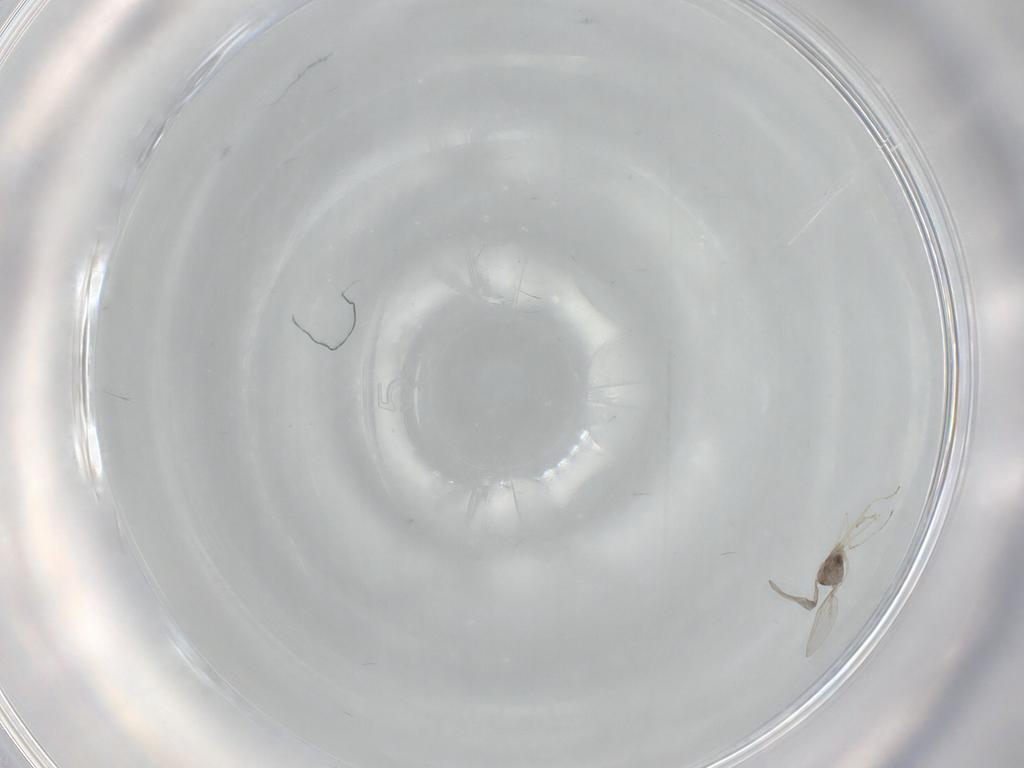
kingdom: Animalia
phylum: Arthropoda
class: Insecta
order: Diptera
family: Cecidomyiidae
